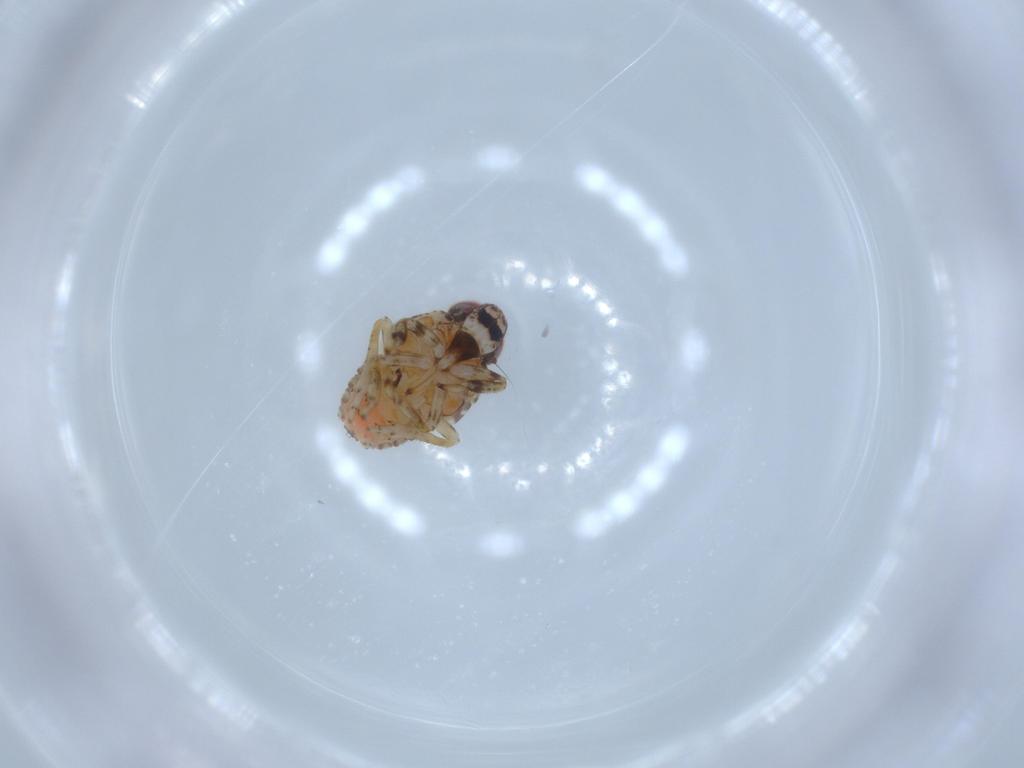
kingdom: Animalia
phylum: Arthropoda
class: Insecta
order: Hemiptera
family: Issidae
